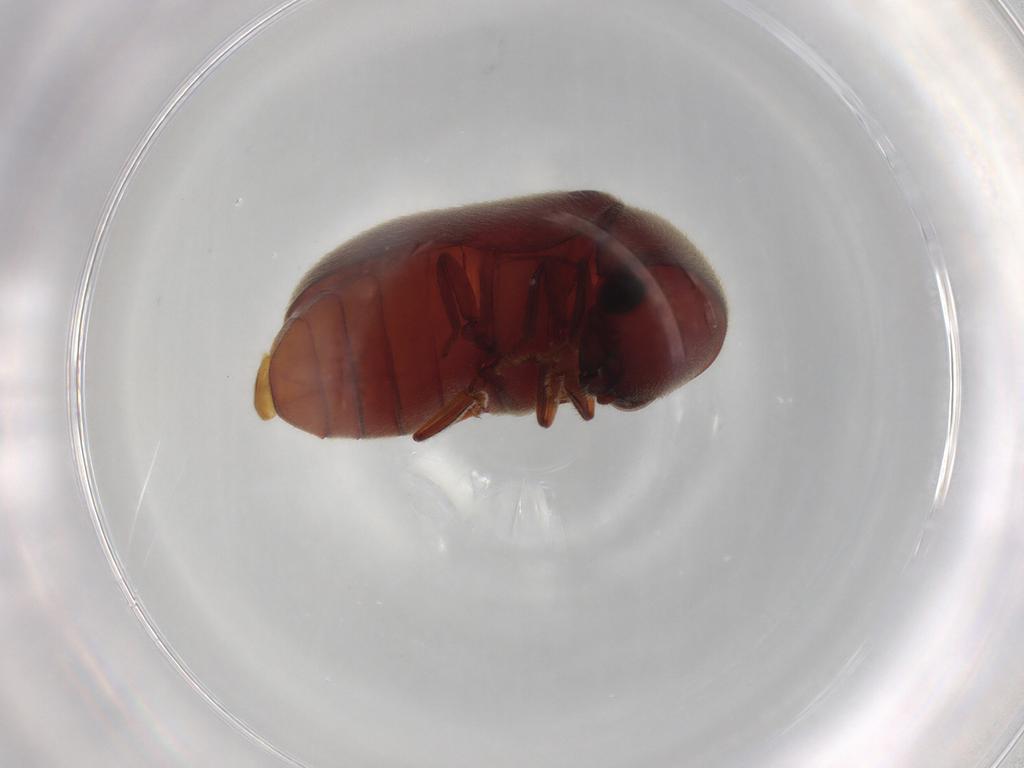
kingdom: Animalia
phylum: Arthropoda
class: Insecta
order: Coleoptera
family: Ptinidae
